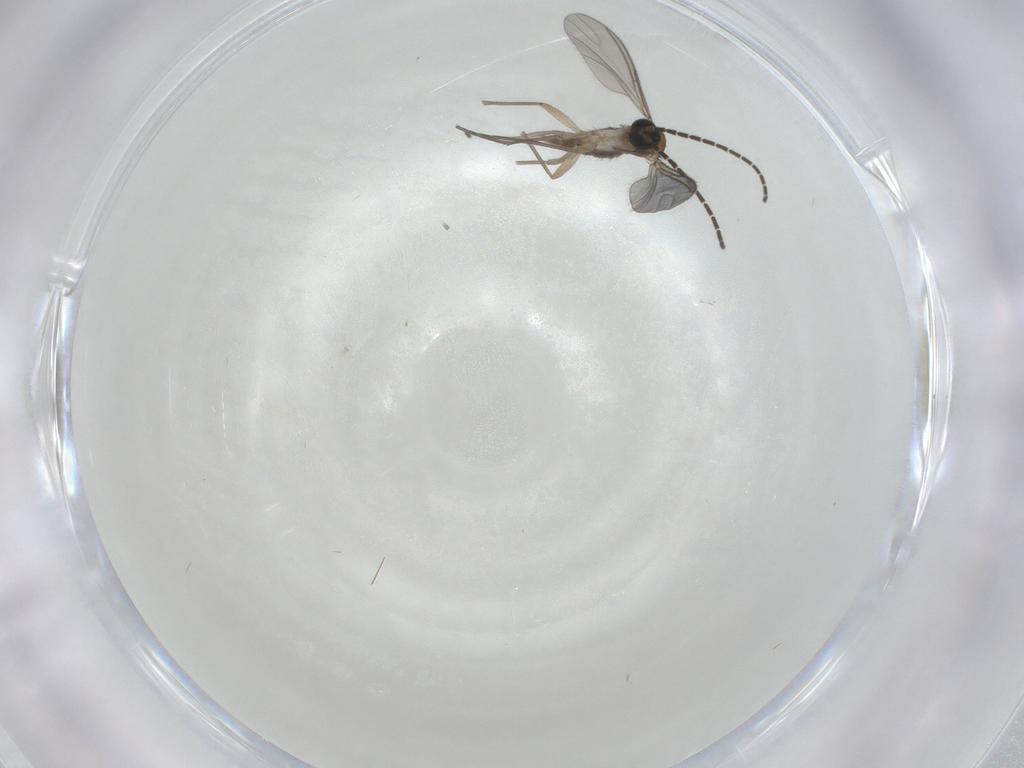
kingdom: Animalia
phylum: Arthropoda
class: Insecta
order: Diptera
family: Sciaridae
